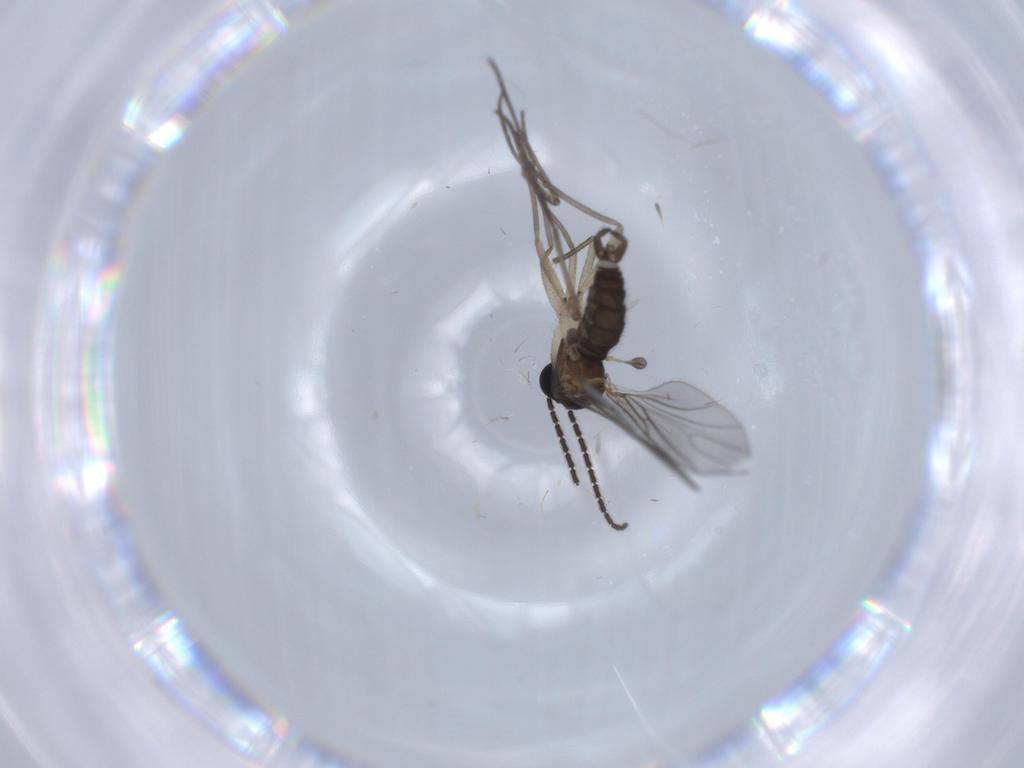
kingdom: Animalia
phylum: Arthropoda
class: Insecta
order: Diptera
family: Sciaridae
